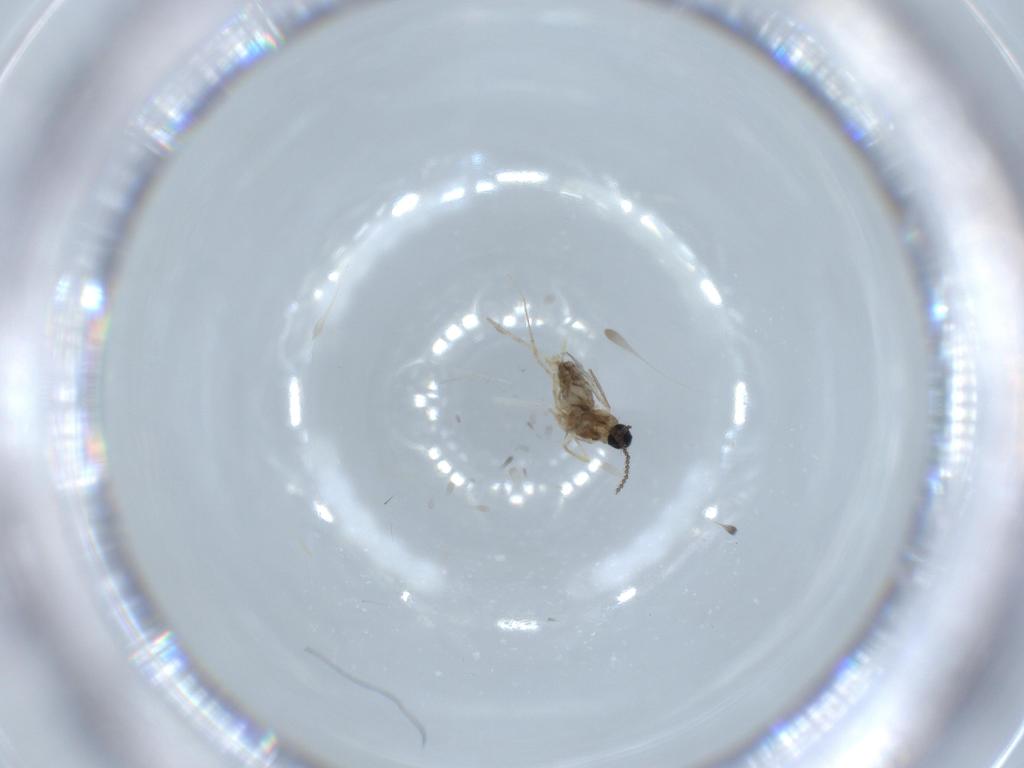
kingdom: Animalia
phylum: Arthropoda
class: Insecta
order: Diptera
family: Cecidomyiidae
